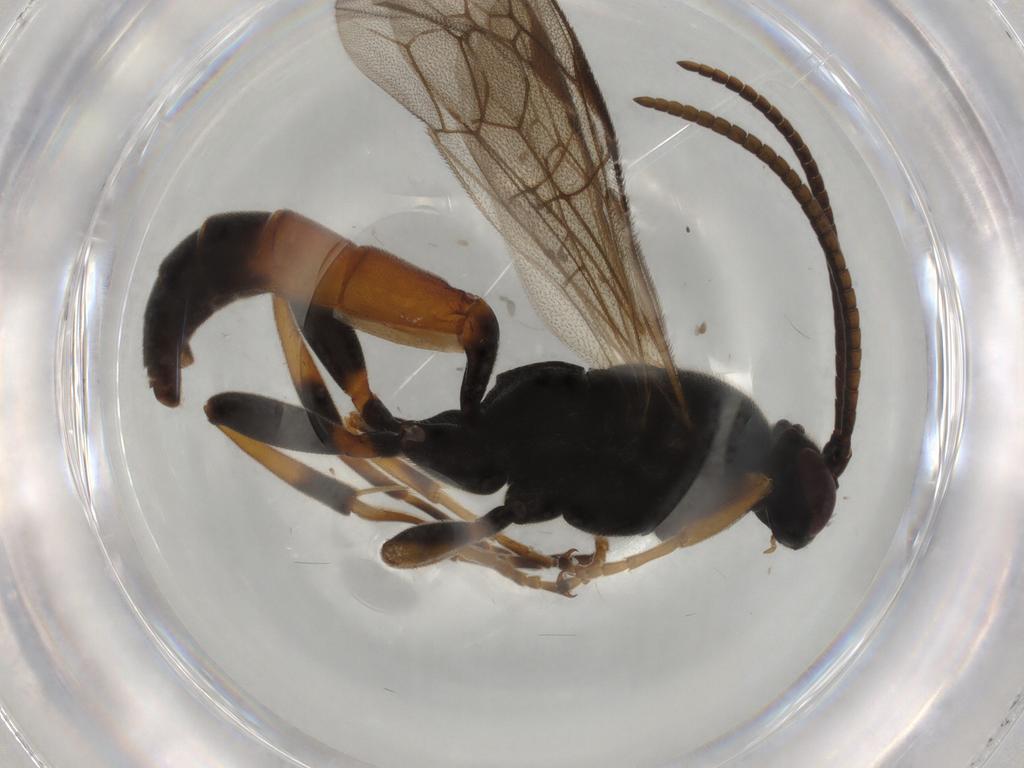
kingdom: Animalia
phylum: Arthropoda
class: Insecta
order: Hymenoptera
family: Ichneumonidae
